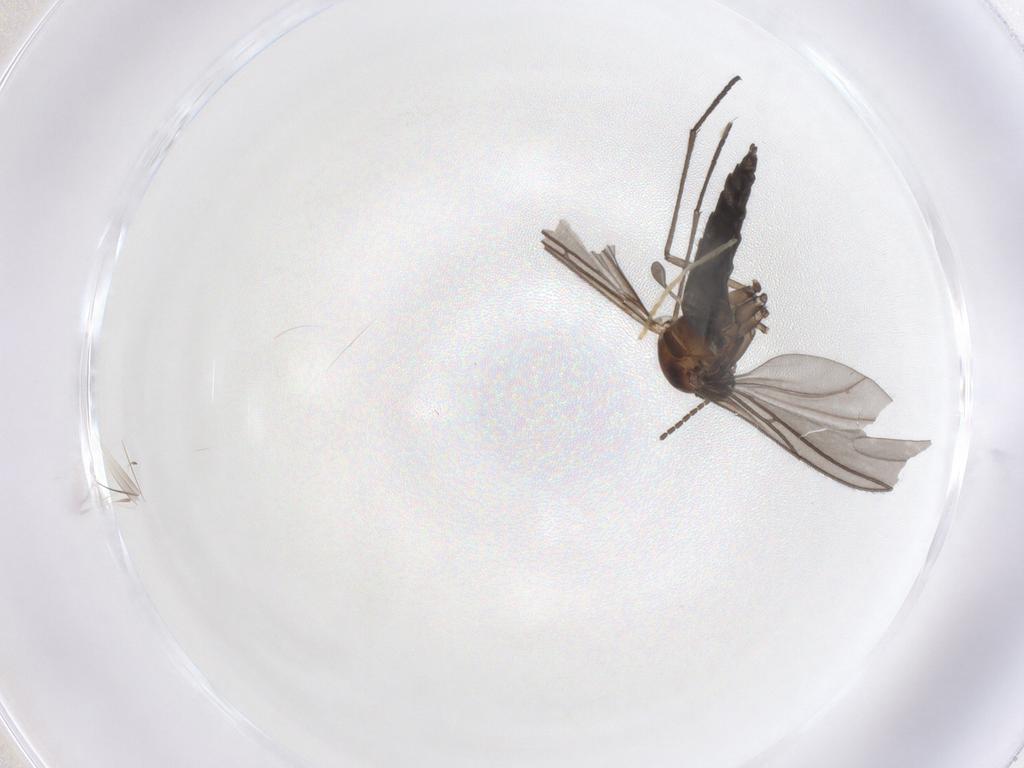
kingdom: Animalia
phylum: Arthropoda
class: Insecta
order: Diptera
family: Sciaridae
